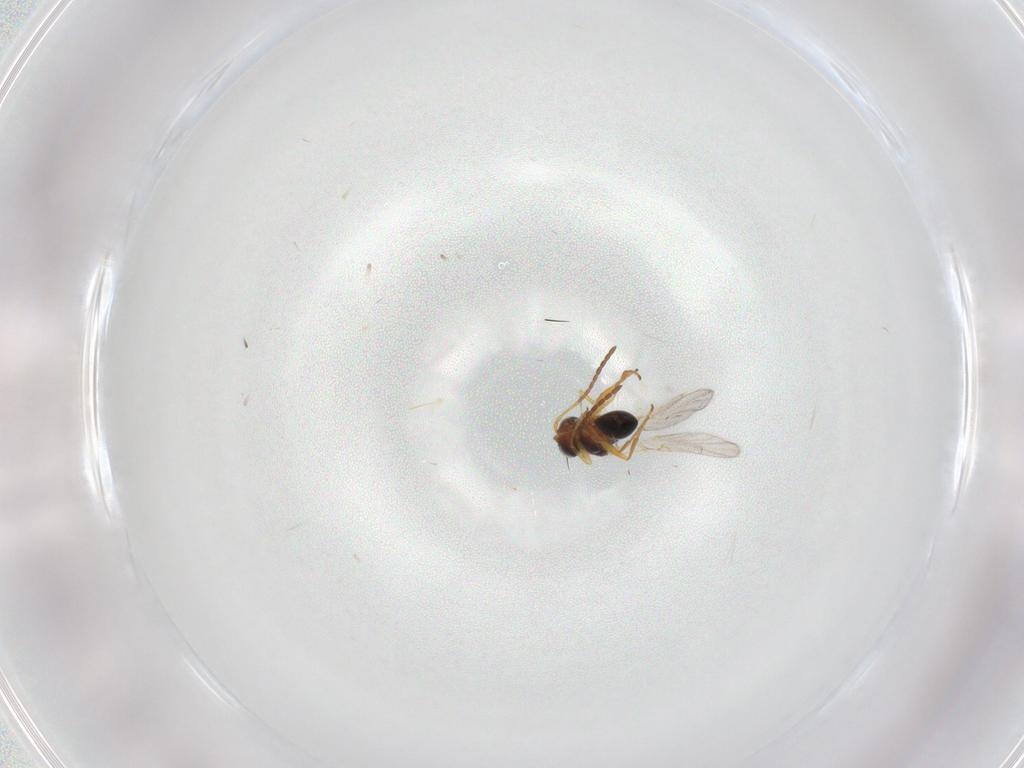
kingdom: Animalia
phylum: Arthropoda
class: Insecta
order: Hymenoptera
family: Figitidae
